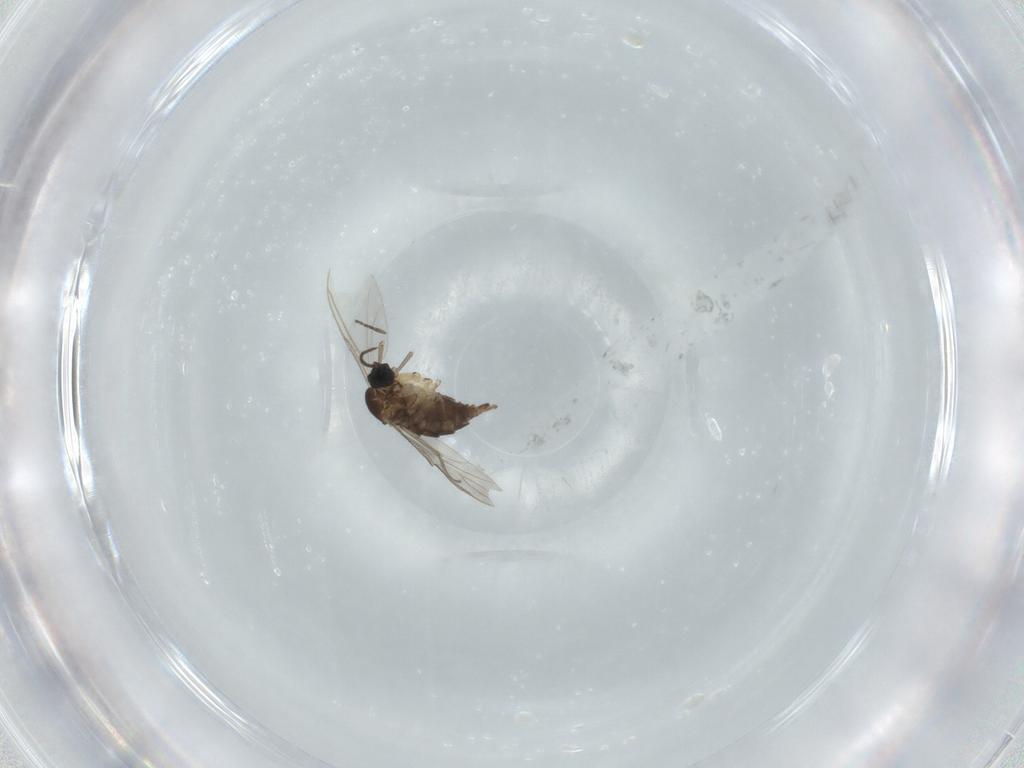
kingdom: Animalia
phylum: Arthropoda
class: Insecta
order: Diptera
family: Sciaridae
